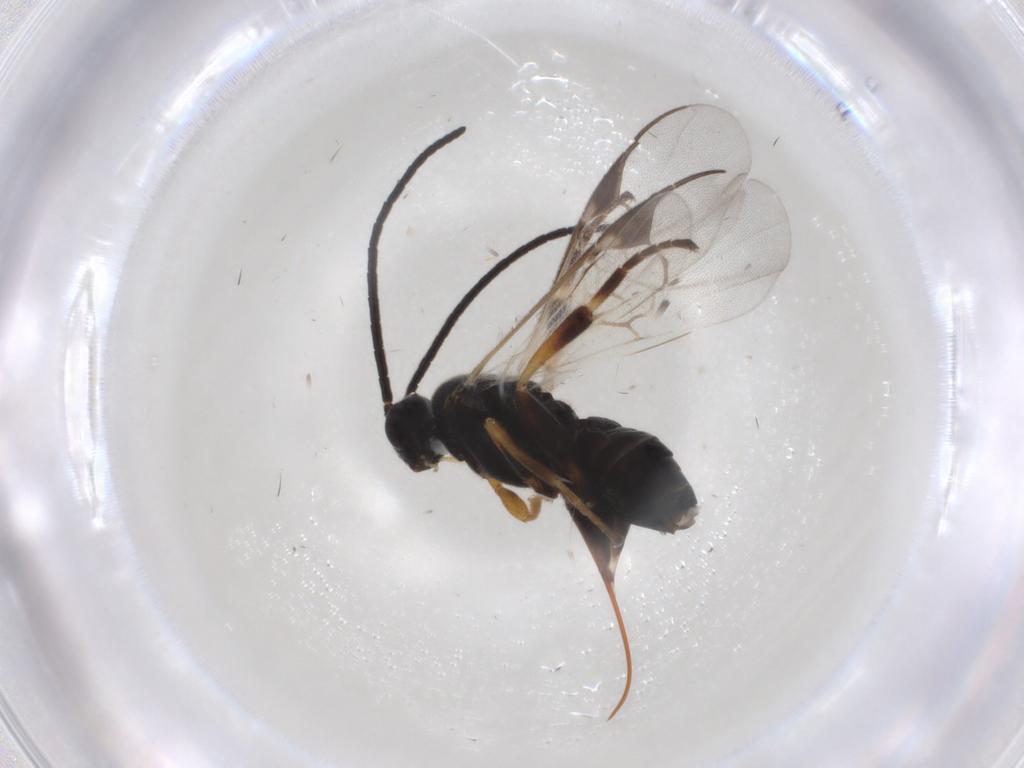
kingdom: Animalia
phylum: Arthropoda
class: Insecta
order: Hymenoptera
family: Braconidae
